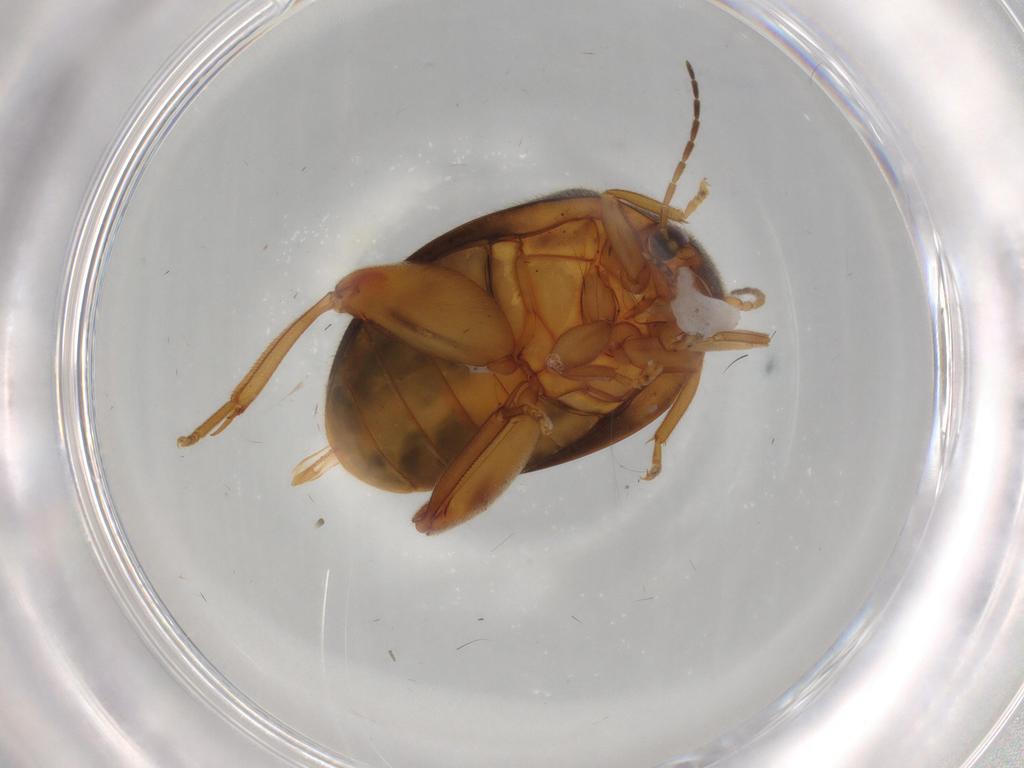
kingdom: Animalia
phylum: Arthropoda
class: Insecta
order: Coleoptera
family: Scirtidae
